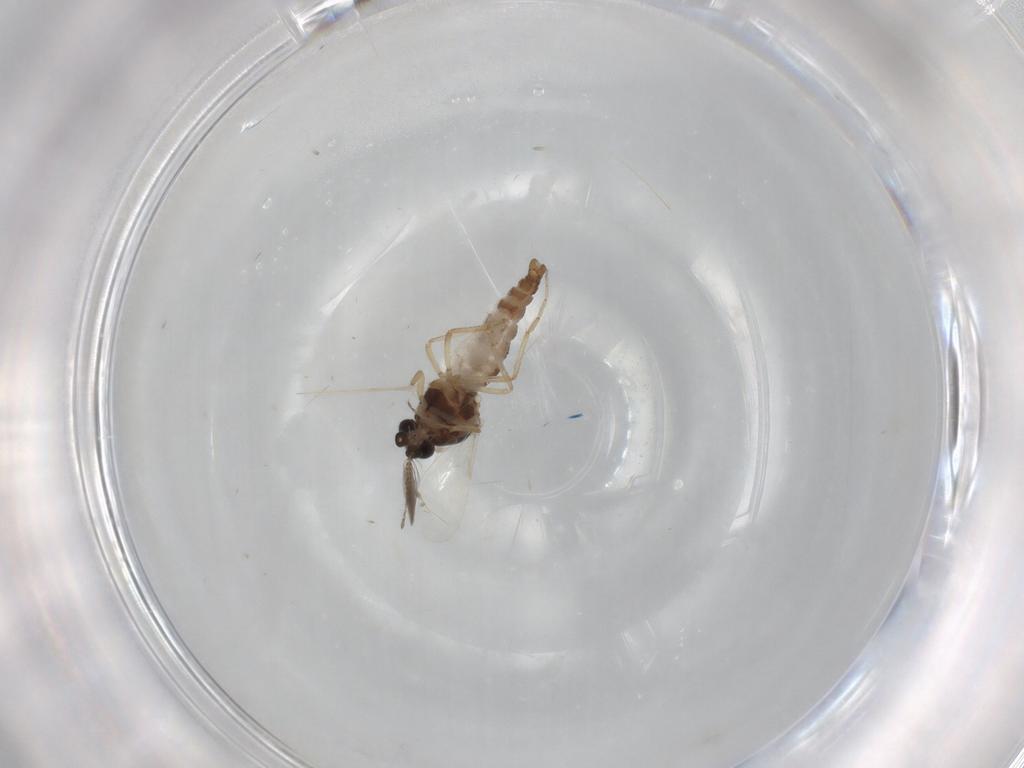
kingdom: Animalia
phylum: Arthropoda
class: Insecta
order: Diptera
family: Ceratopogonidae
